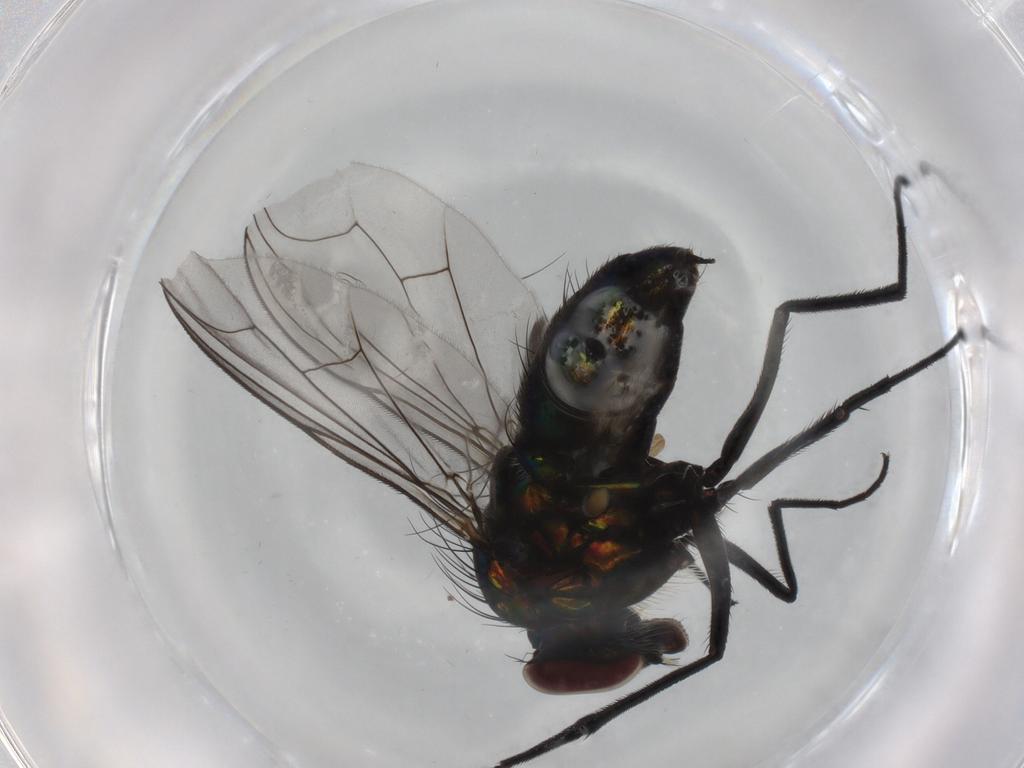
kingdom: Animalia
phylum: Arthropoda
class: Insecta
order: Diptera
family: Dolichopodidae
